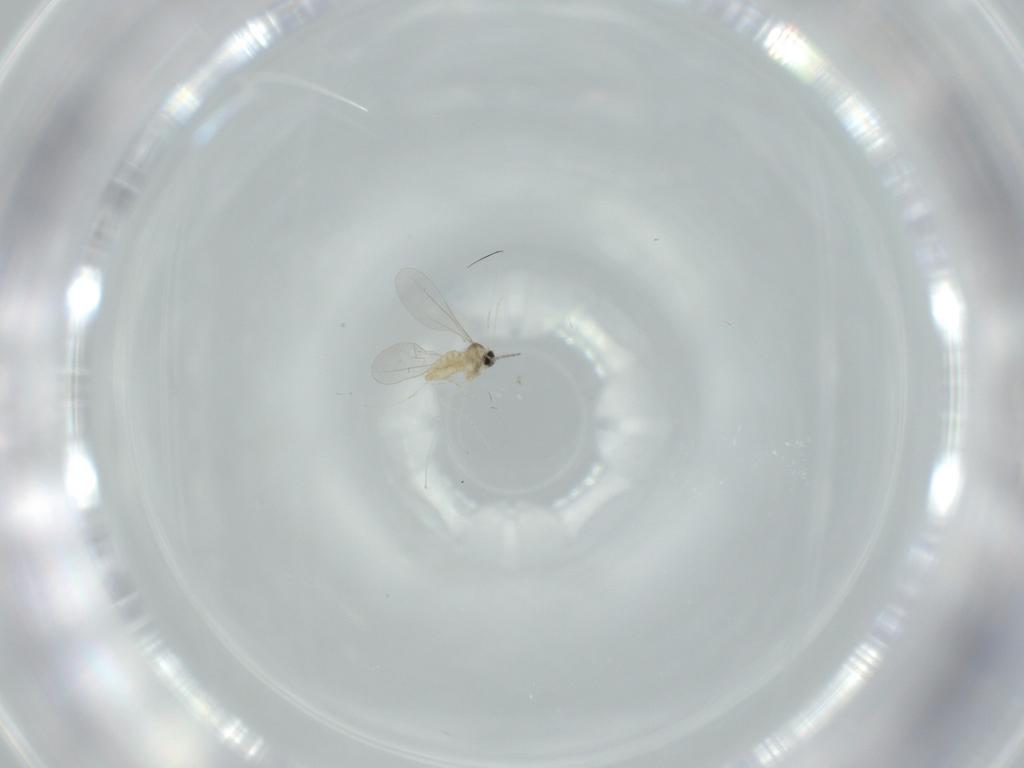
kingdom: Animalia
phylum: Arthropoda
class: Insecta
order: Diptera
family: Cecidomyiidae
